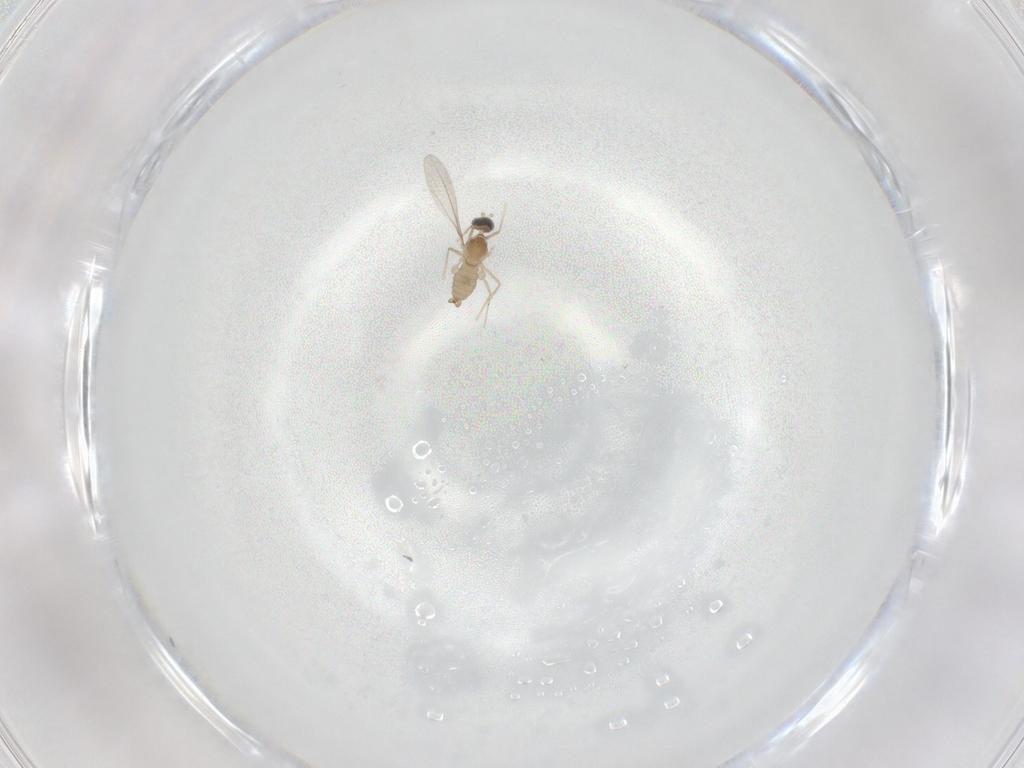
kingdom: Animalia
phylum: Arthropoda
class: Insecta
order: Diptera
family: Cecidomyiidae
